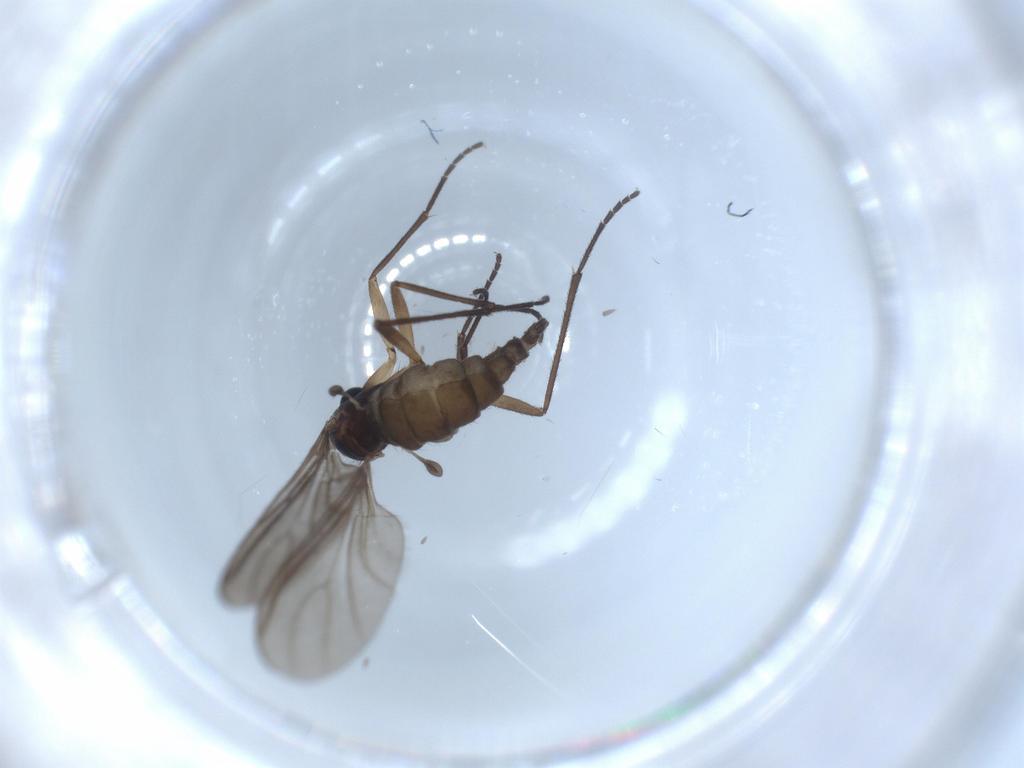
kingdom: Animalia
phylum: Arthropoda
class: Insecta
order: Diptera
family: Sciaridae
